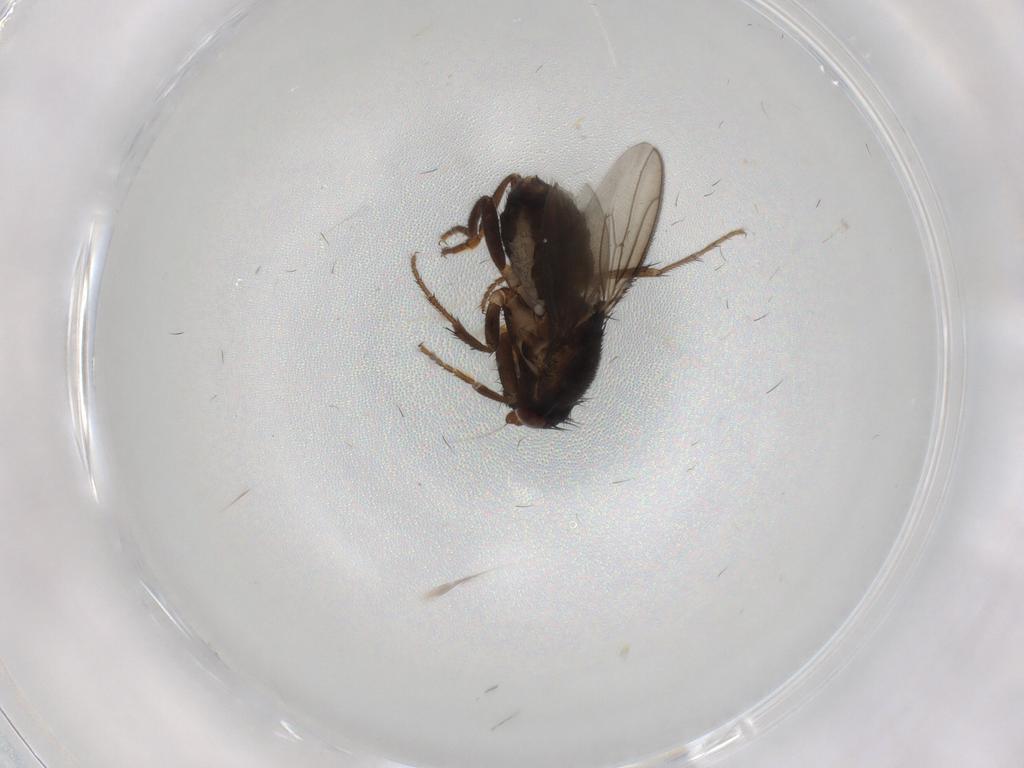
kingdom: Animalia
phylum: Arthropoda
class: Insecta
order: Diptera
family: Sphaeroceridae
